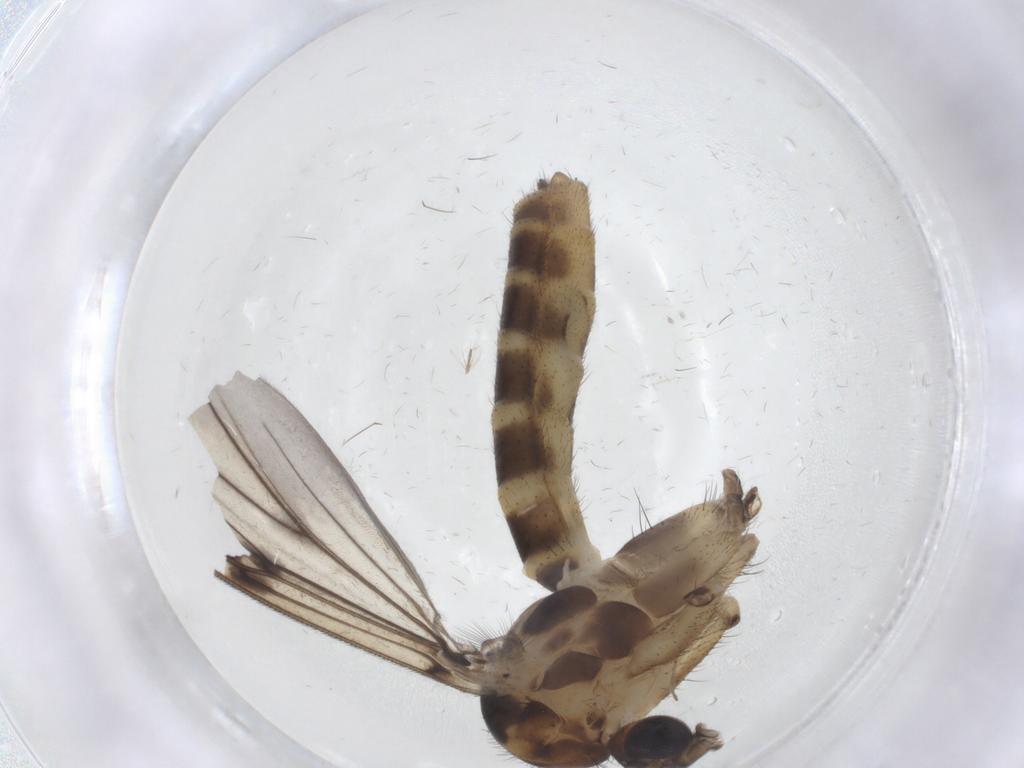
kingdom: Animalia
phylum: Arthropoda
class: Insecta
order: Diptera
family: Mycetophilidae
